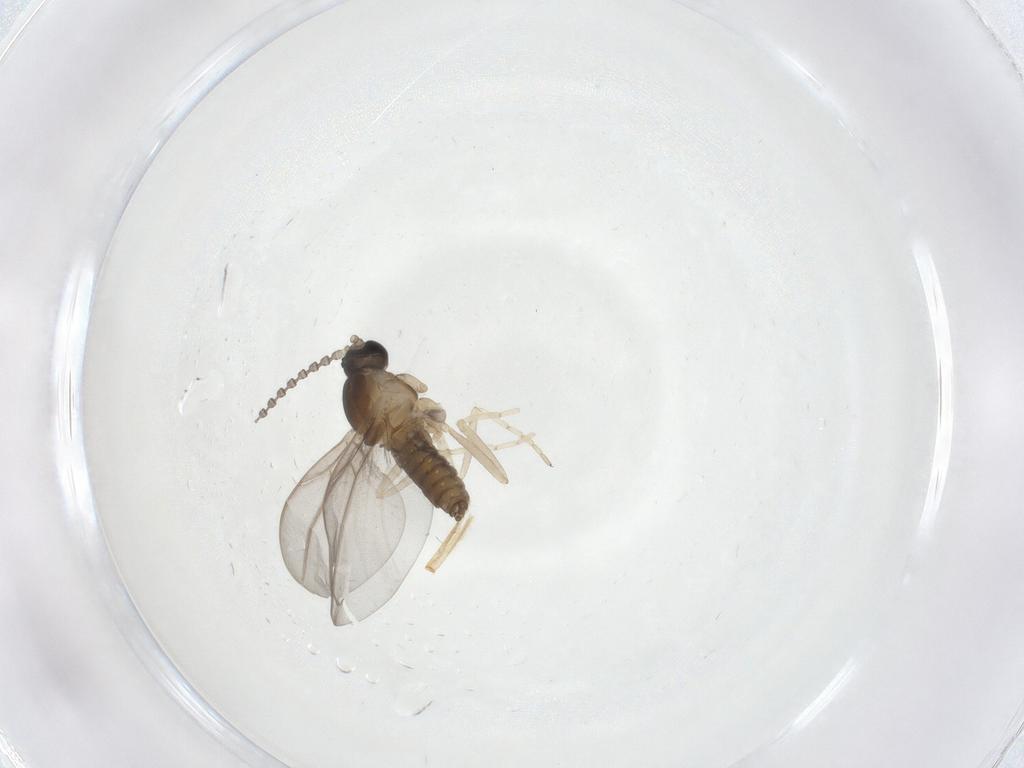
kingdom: Animalia
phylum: Arthropoda
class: Insecta
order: Diptera
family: Cecidomyiidae
